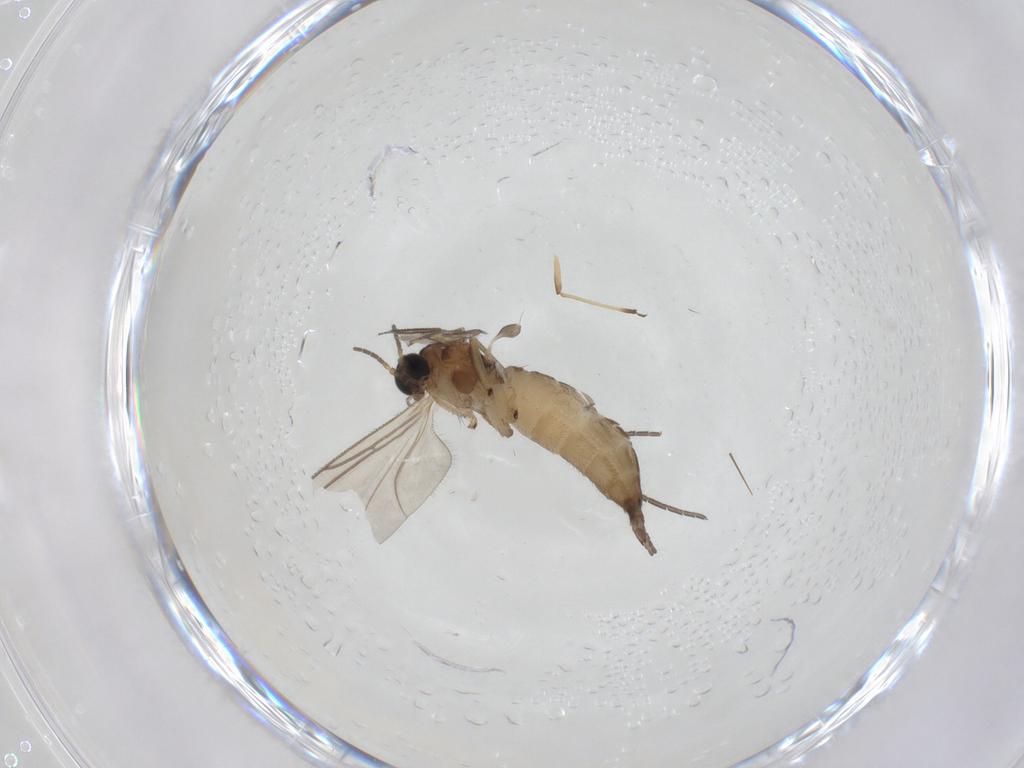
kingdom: Animalia
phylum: Arthropoda
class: Insecta
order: Diptera
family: Sciaridae
